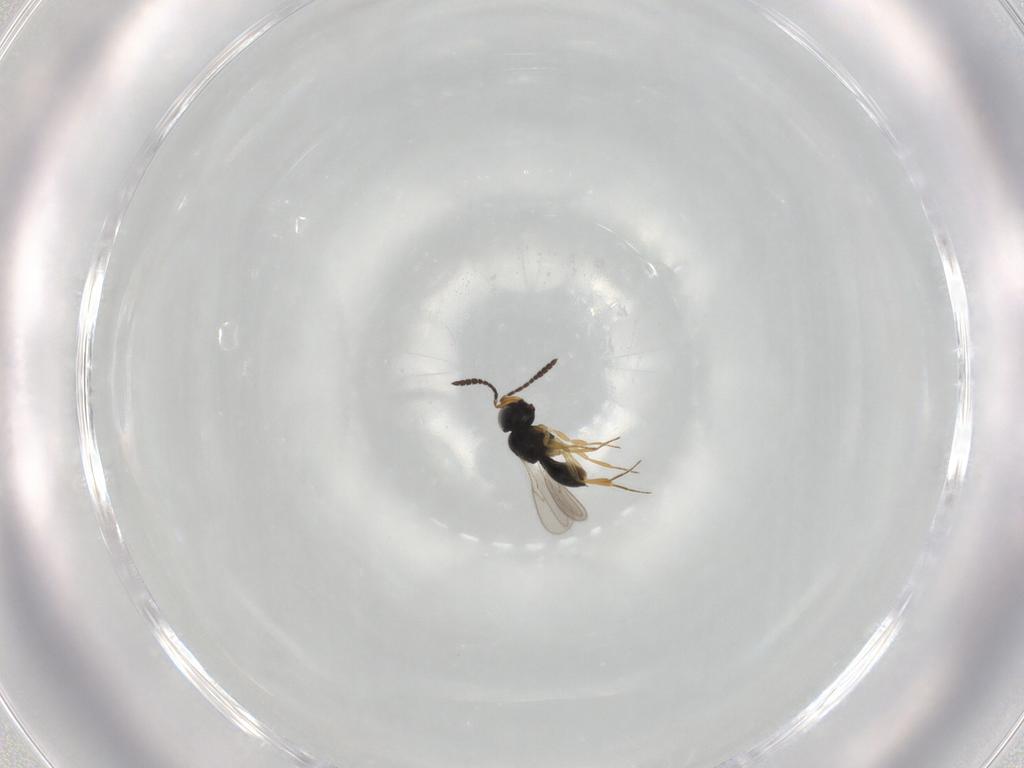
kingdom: Animalia
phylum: Arthropoda
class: Insecta
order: Hymenoptera
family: Scelionidae
